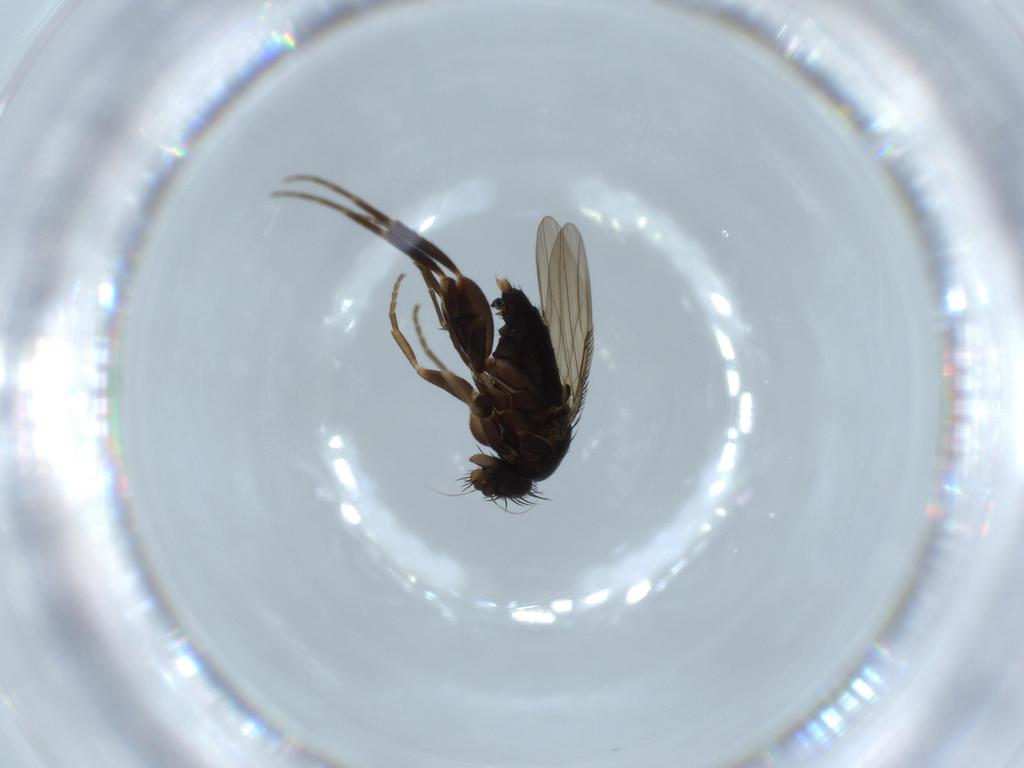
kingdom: Animalia
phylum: Arthropoda
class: Insecta
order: Diptera
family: Phoridae
